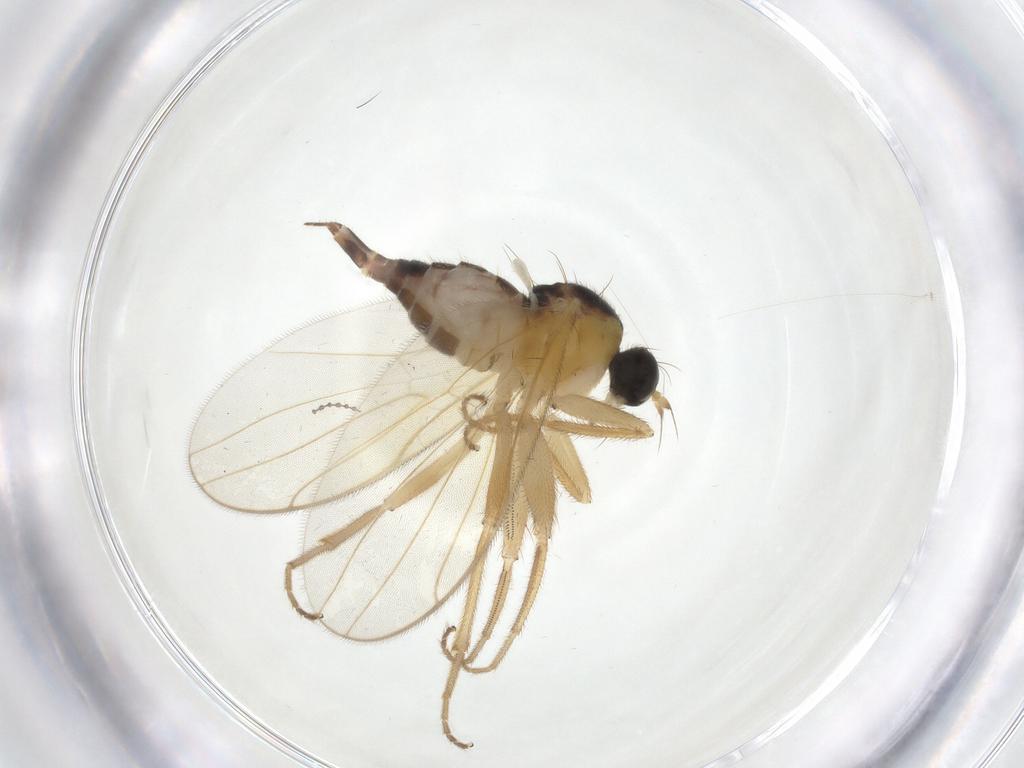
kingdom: Animalia
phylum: Arthropoda
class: Insecta
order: Diptera
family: Hybotidae
